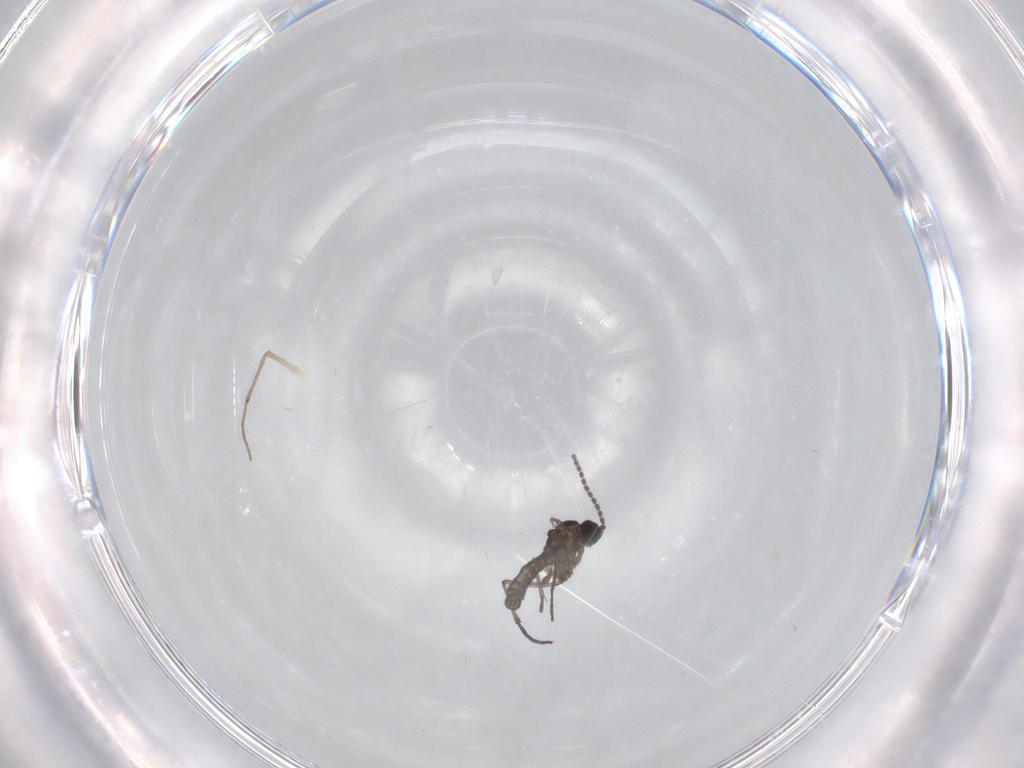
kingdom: Animalia
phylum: Arthropoda
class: Insecta
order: Diptera
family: Sciaridae
